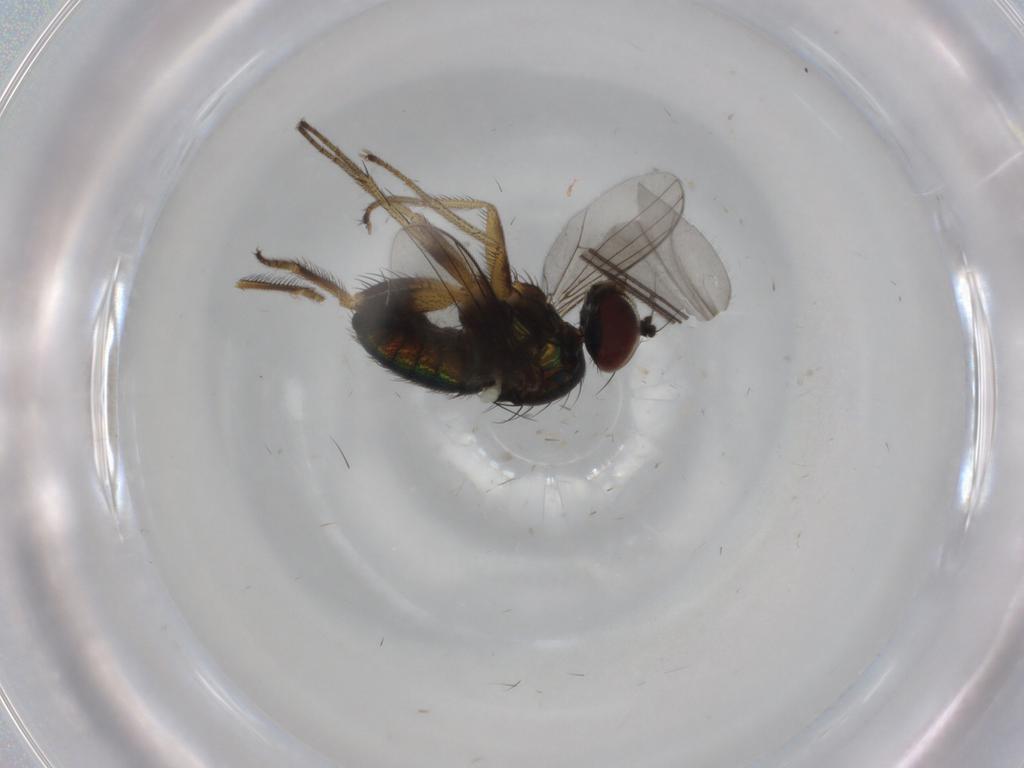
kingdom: Animalia
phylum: Arthropoda
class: Insecta
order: Diptera
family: Dolichopodidae
